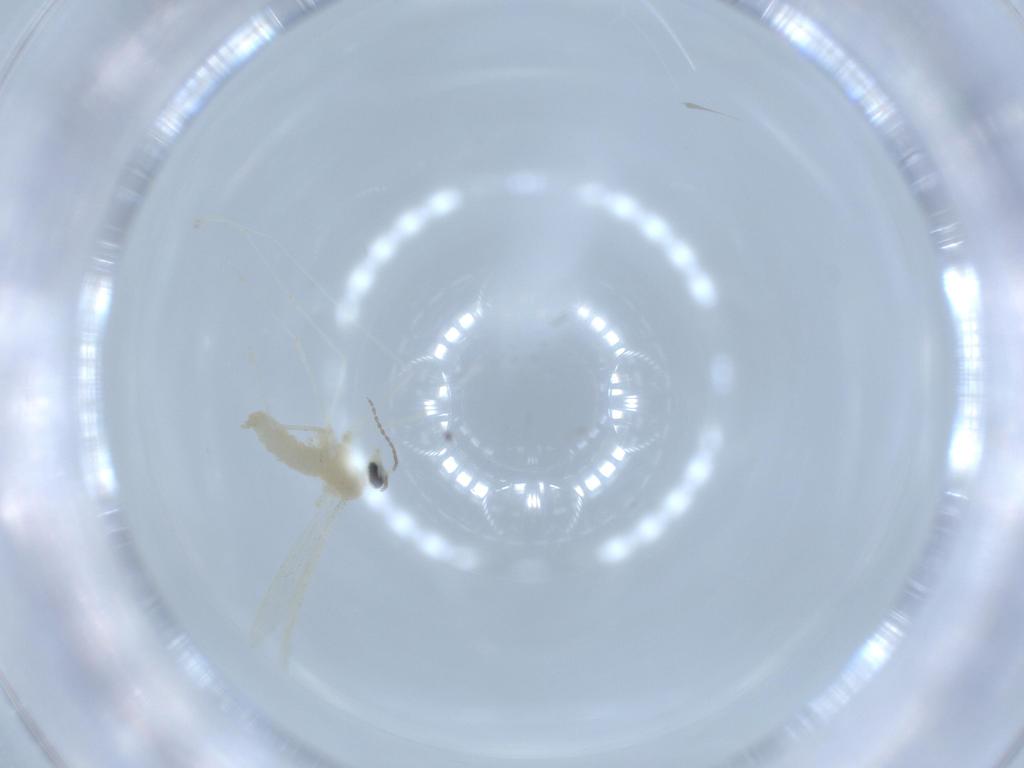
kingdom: Animalia
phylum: Arthropoda
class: Insecta
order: Diptera
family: Cecidomyiidae
